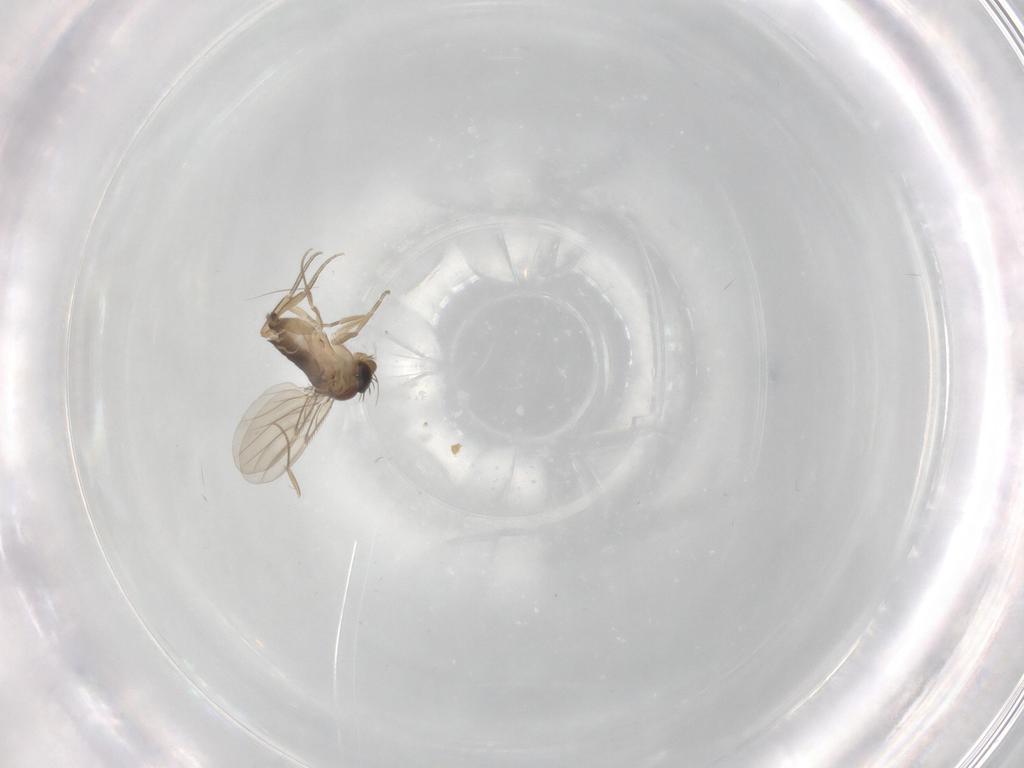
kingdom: Animalia
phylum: Arthropoda
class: Insecta
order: Diptera
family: Phoridae
